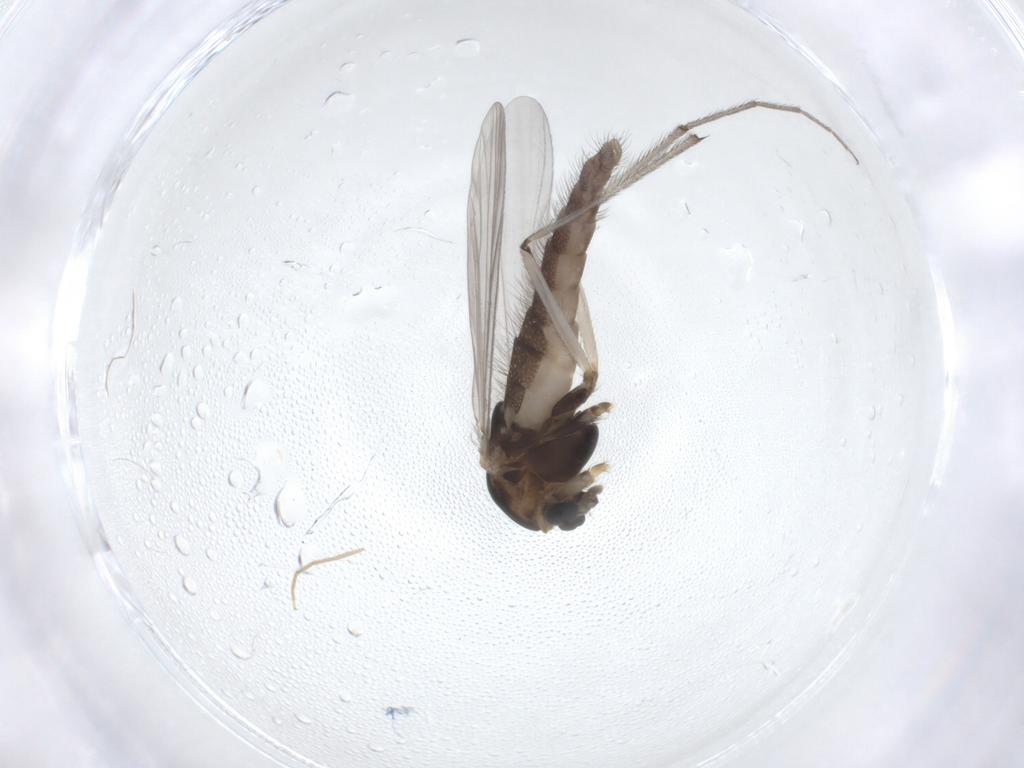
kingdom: Animalia
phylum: Arthropoda
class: Insecta
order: Diptera
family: Chironomidae
